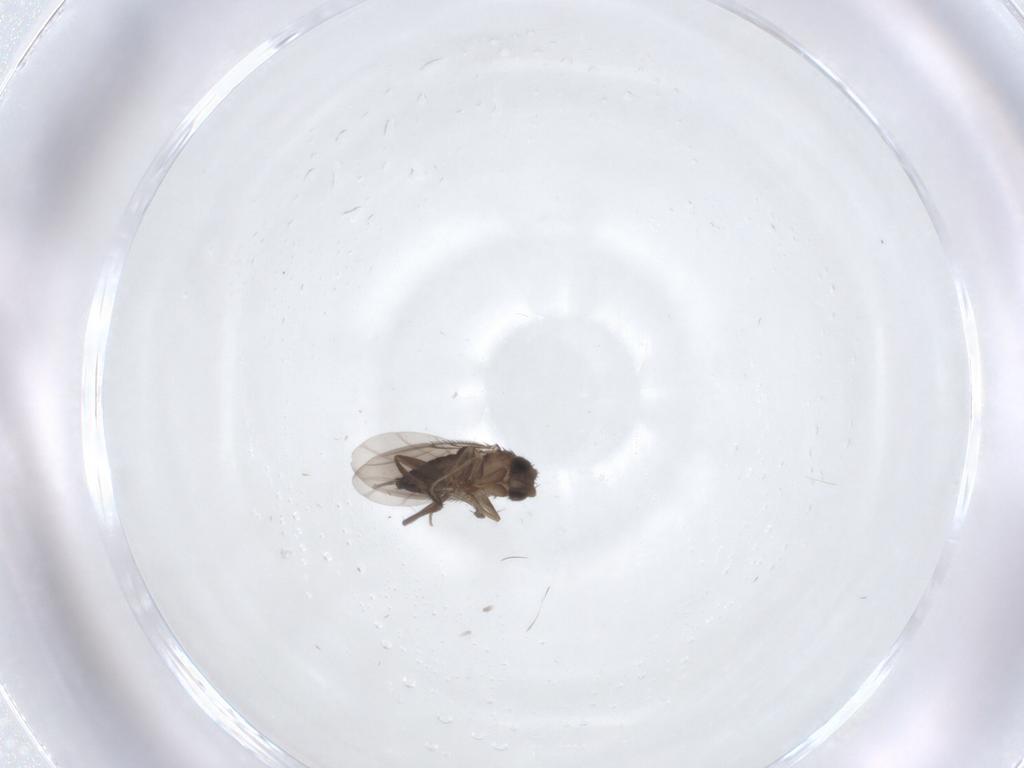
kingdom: Animalia
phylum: Arthropoda
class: Insecta
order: Diptera
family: Phoridae
